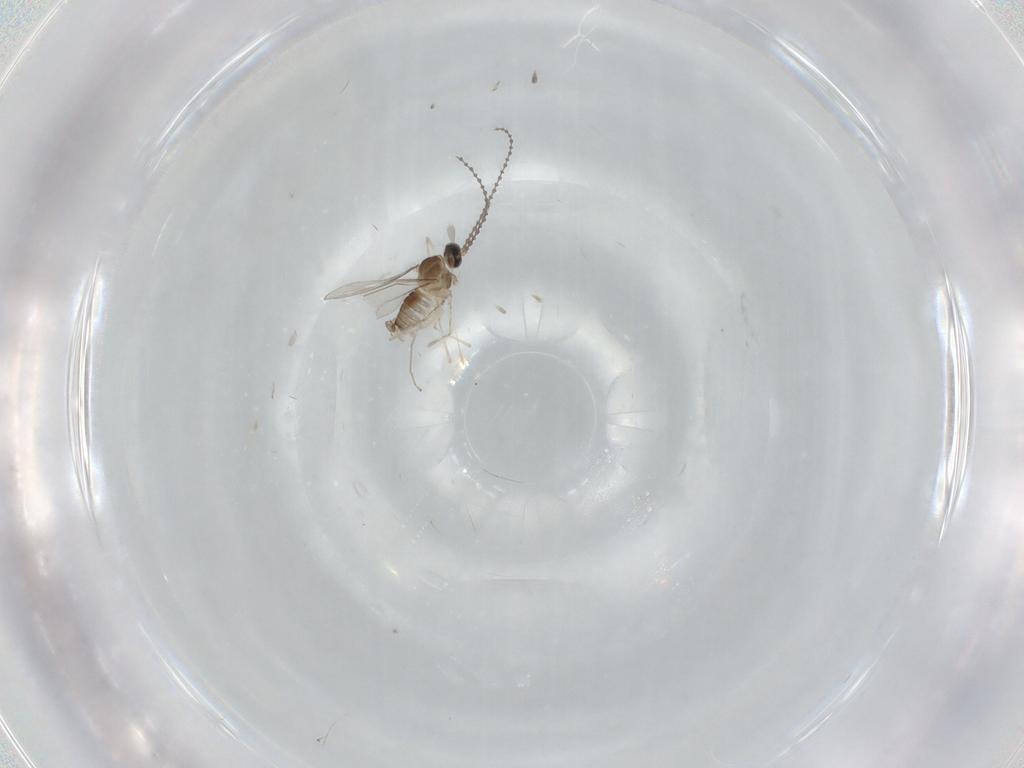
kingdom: Animalia
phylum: Arthropoda
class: Insecta
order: Diptera
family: Cecidomyiidae
